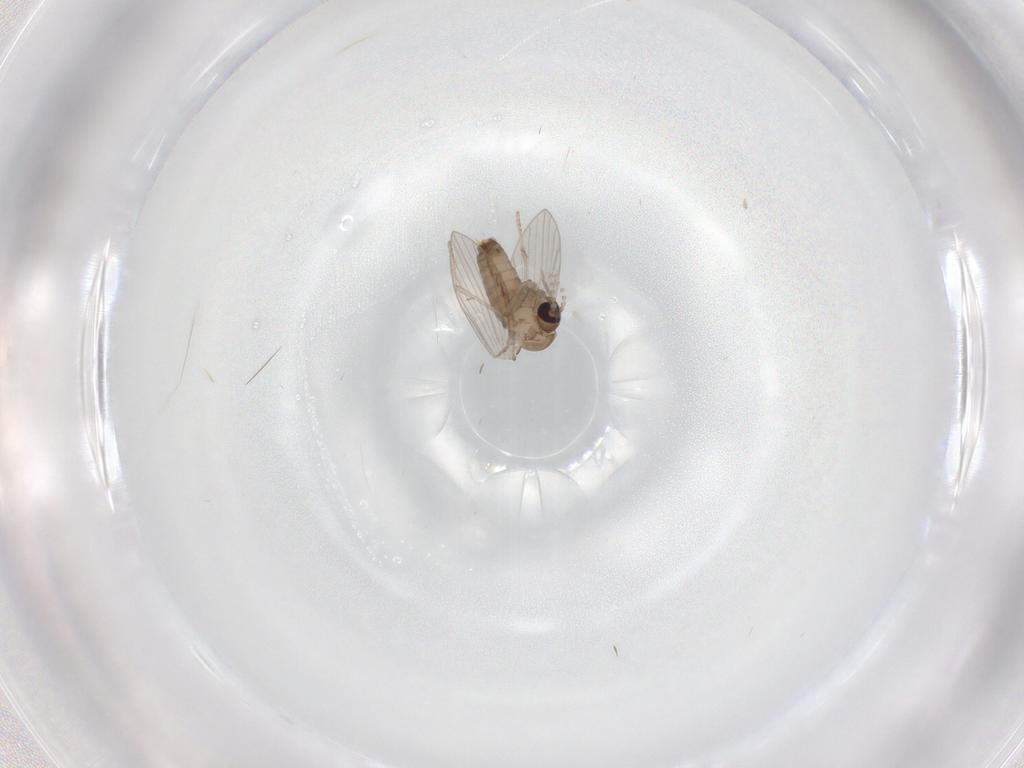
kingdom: Animalia
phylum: Arthropoda
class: Insecta
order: Diptera
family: Psychodidae
